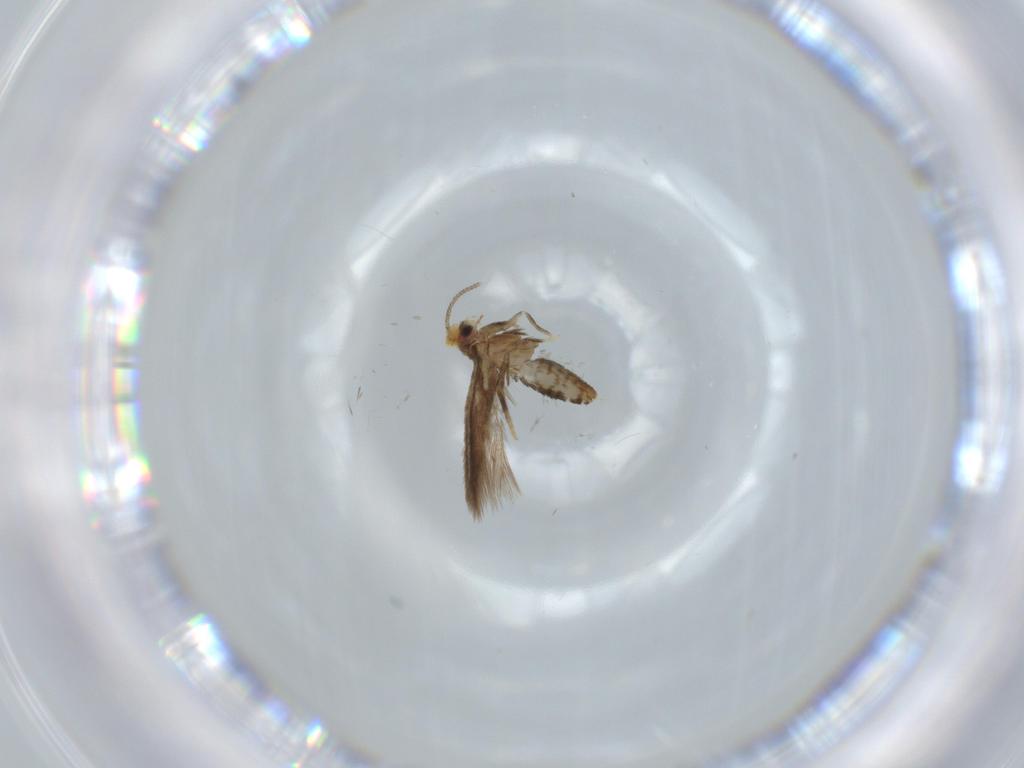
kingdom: Animalia
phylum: Arthropoda
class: Insecta
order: Lepidoptera
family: Nepticulidae
